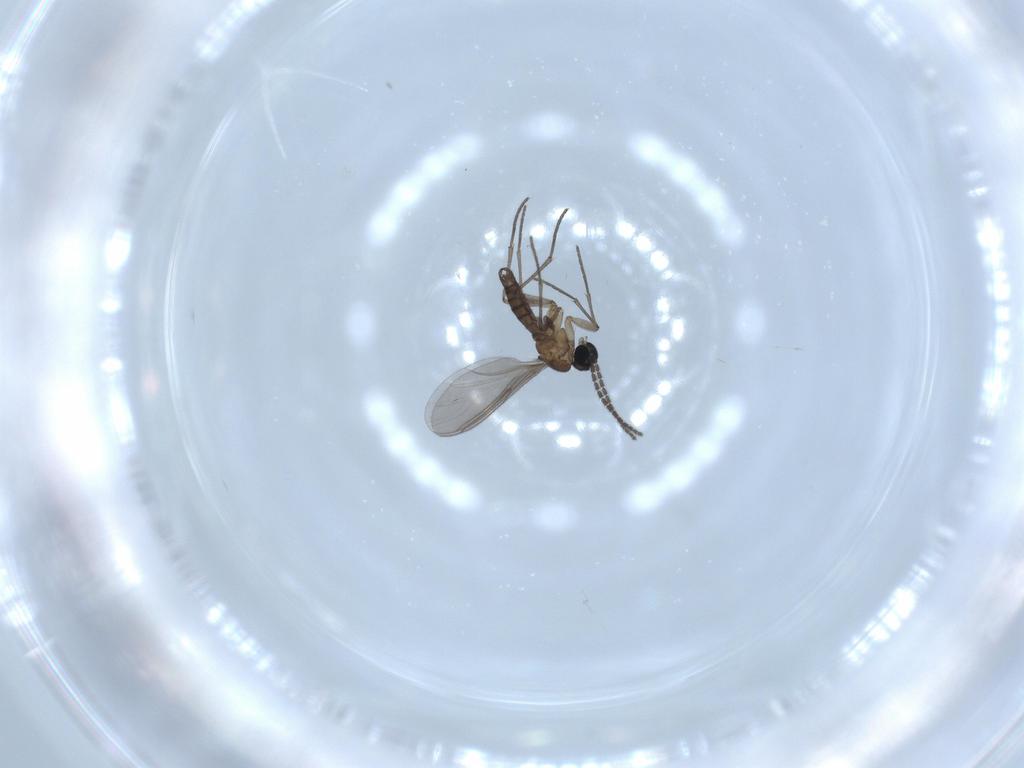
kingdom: Animalia
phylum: Arthropoda
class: Insecta
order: Diptera
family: Sciaridae
